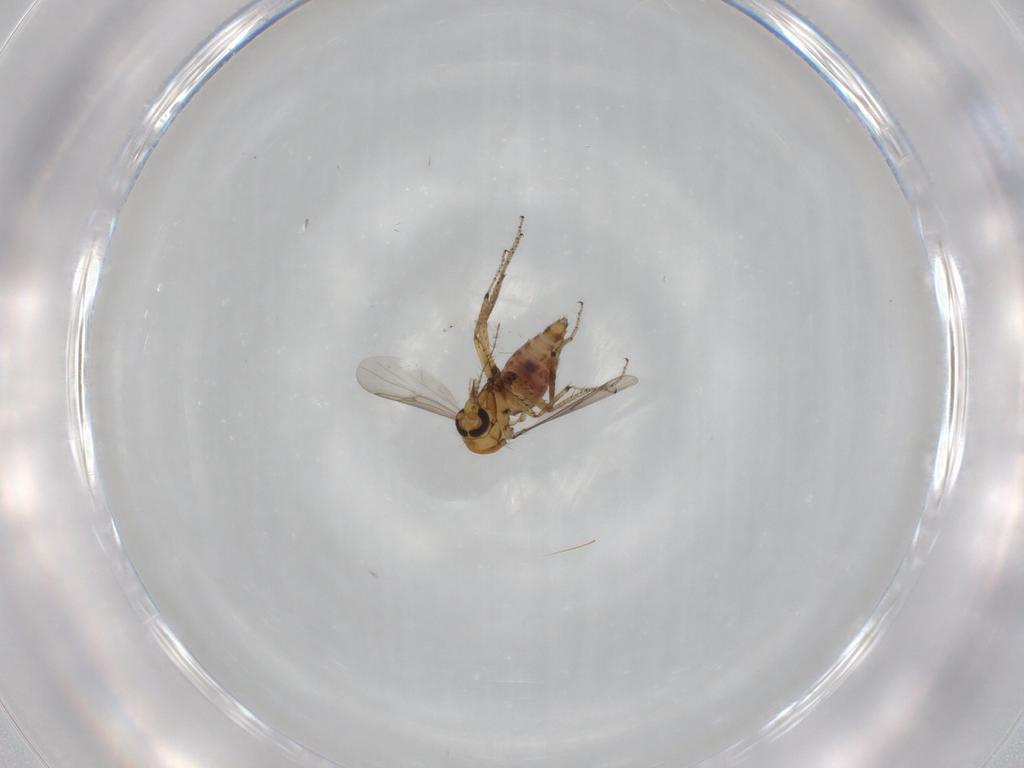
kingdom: Animalia
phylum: Arthropoda
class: Insecta
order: Diptera
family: Ceratopogonidae
